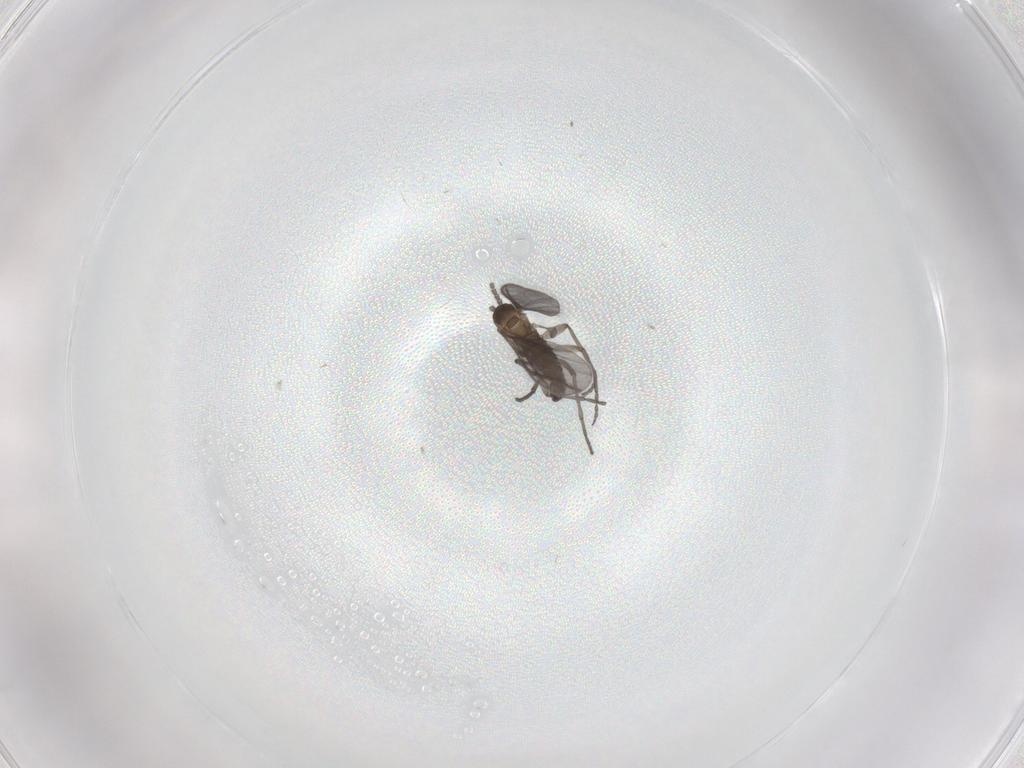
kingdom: Animalia
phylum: Arthropoda
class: Insecta
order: Diptera
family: Sciaridae
